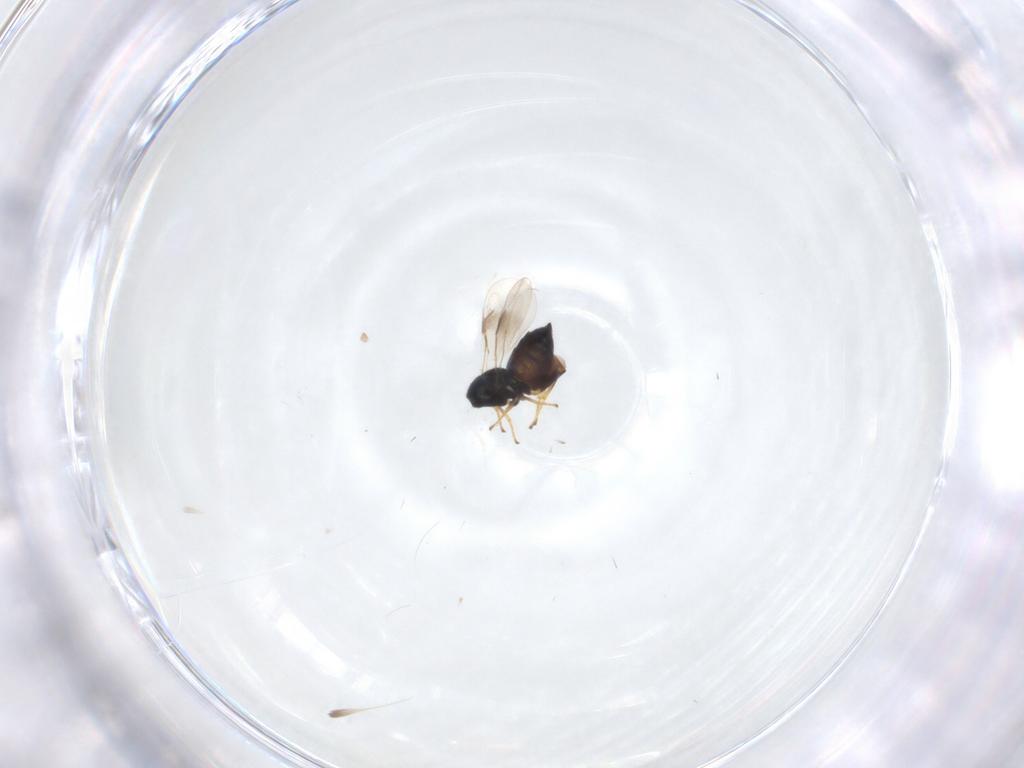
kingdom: Animalia
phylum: Arthropoda
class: Insecta
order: Hymenoptera
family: Pteromalidae
